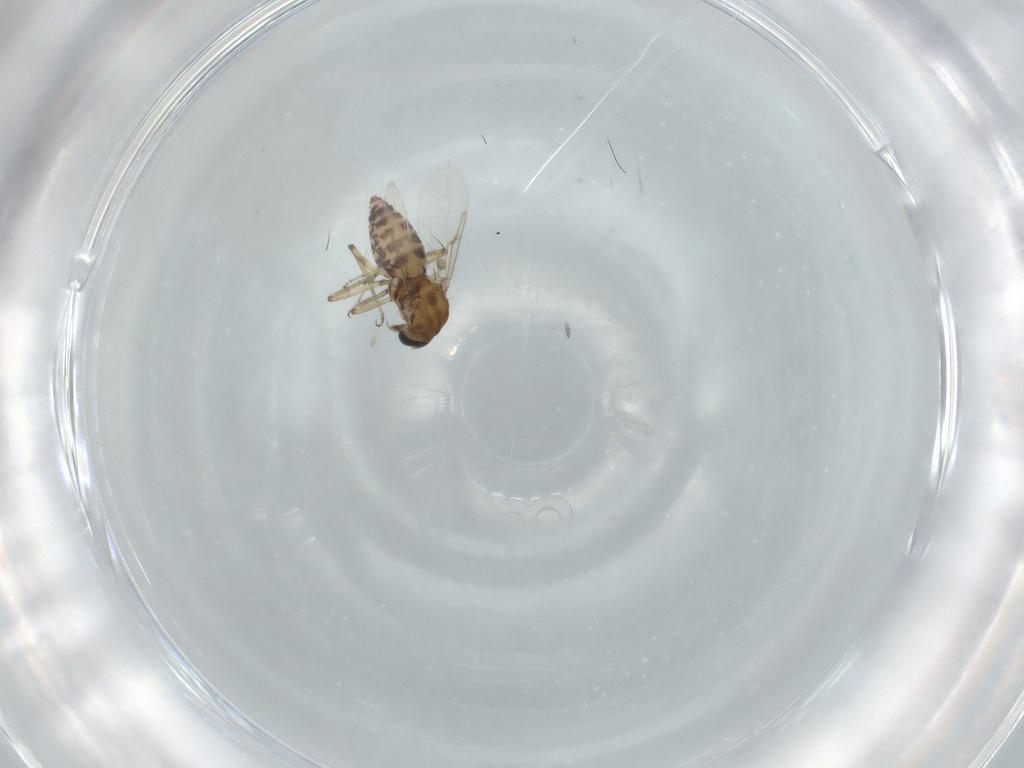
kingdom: Animalia
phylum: Arthropoda
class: Insecta
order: Diptera
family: Ceratopogonidae
